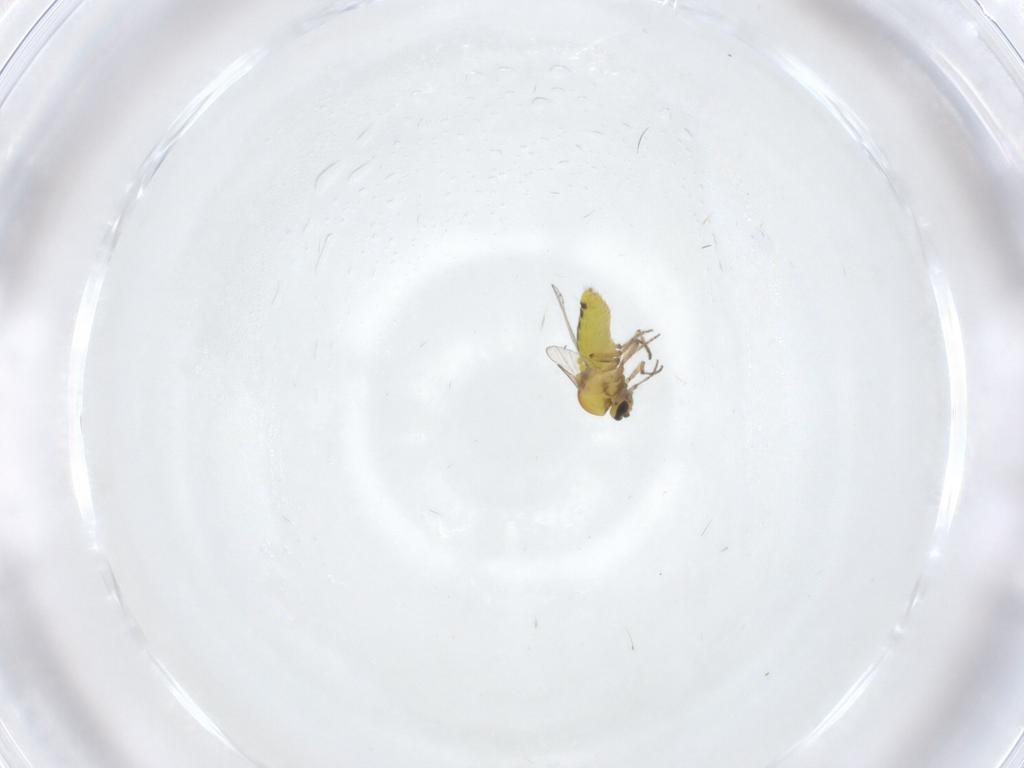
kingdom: Animalia
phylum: Arthropoda
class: Insecta
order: Diptera
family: Ceratopogonidae
